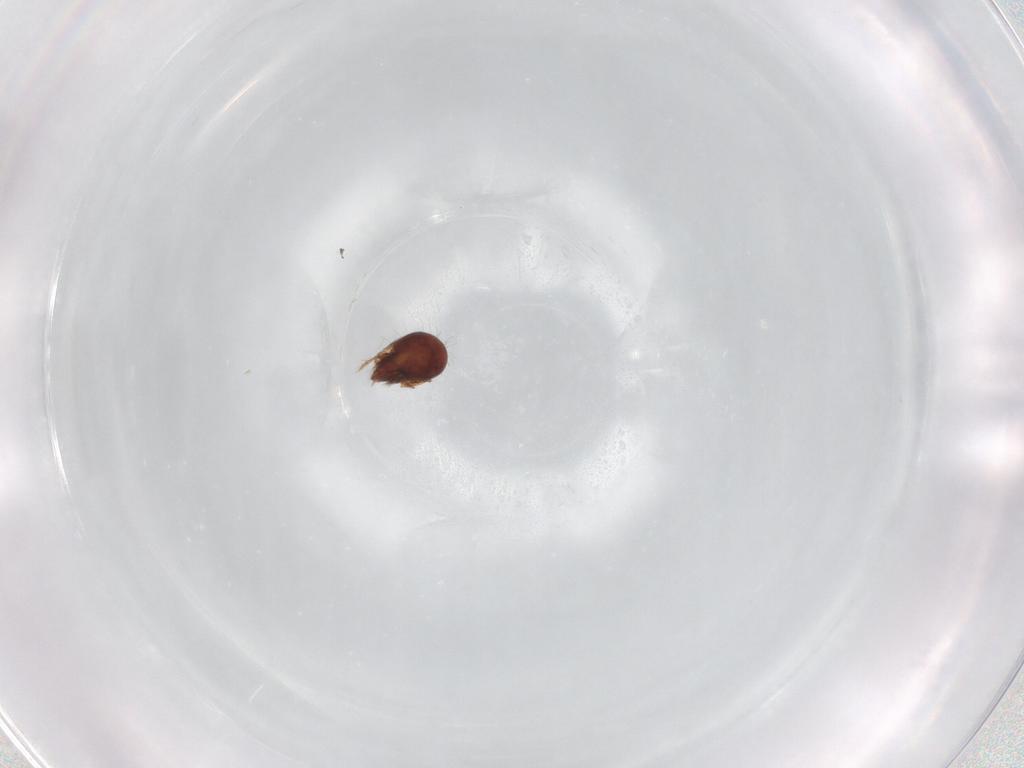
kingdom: Animalia
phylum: Arthropoda
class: Arachnida
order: Sarcoptiformes
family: Humerobatidae
